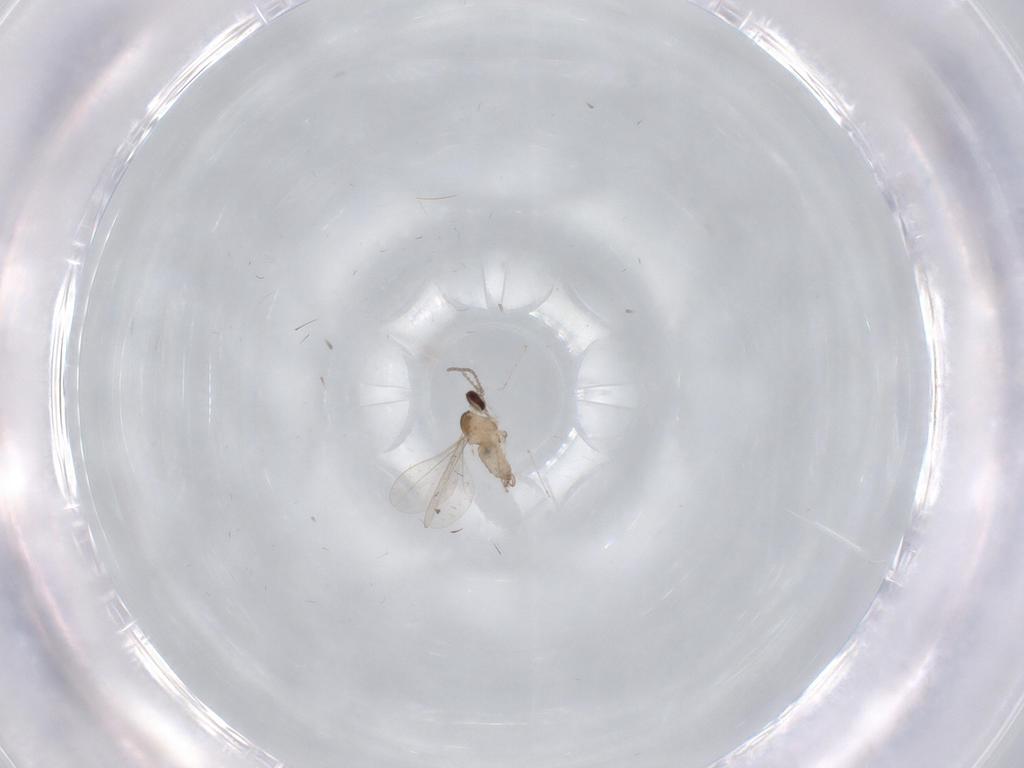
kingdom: Animalia
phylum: Arthropoda
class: Insecta
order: Diptera
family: Cecidomyiidae
